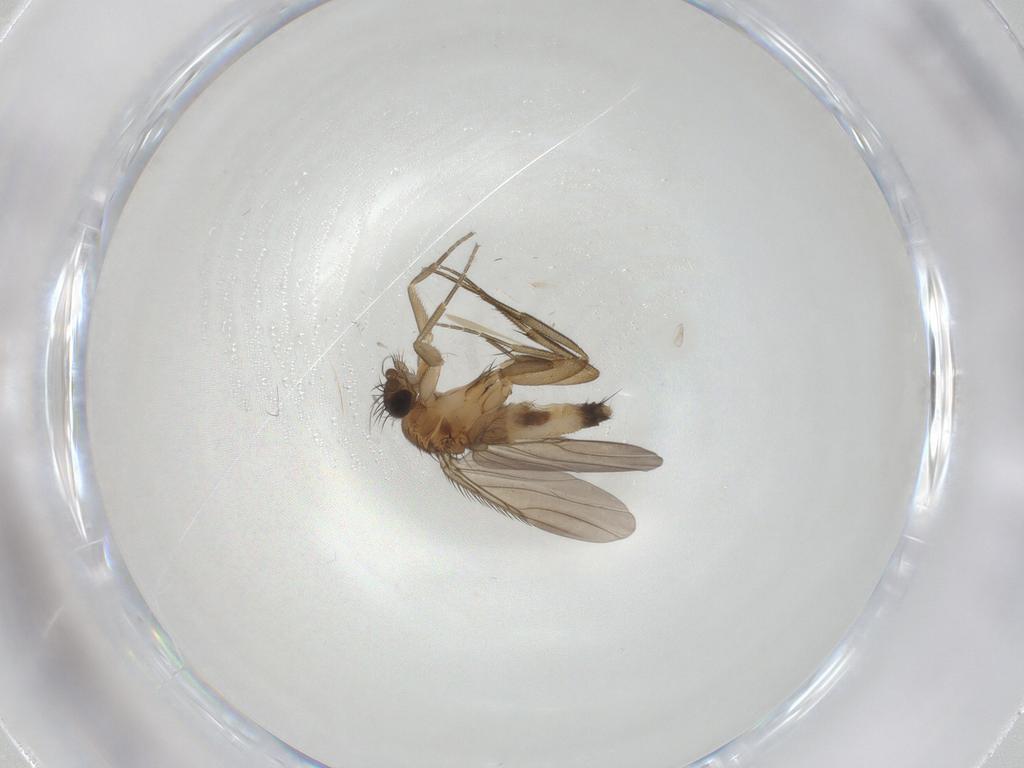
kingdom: Animalia
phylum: Arthropoda
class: Insecta
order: Diptera
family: Phoridae
